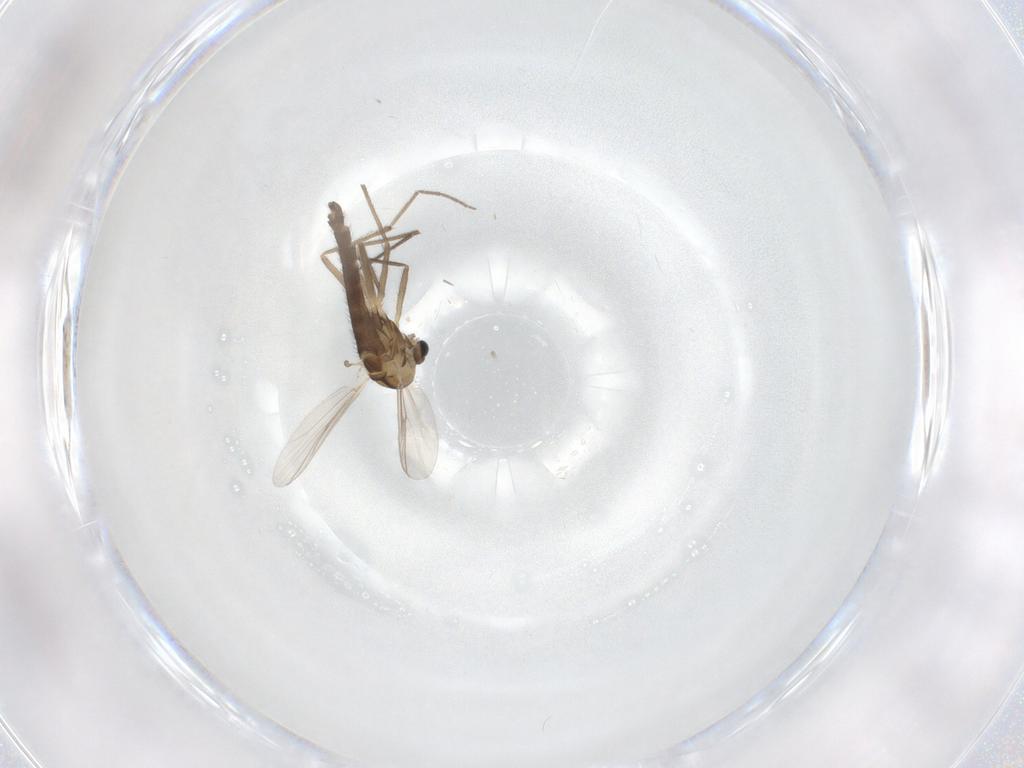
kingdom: Animalia
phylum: Arthropoda
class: Insecta
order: Diptera
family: Chironomidae
